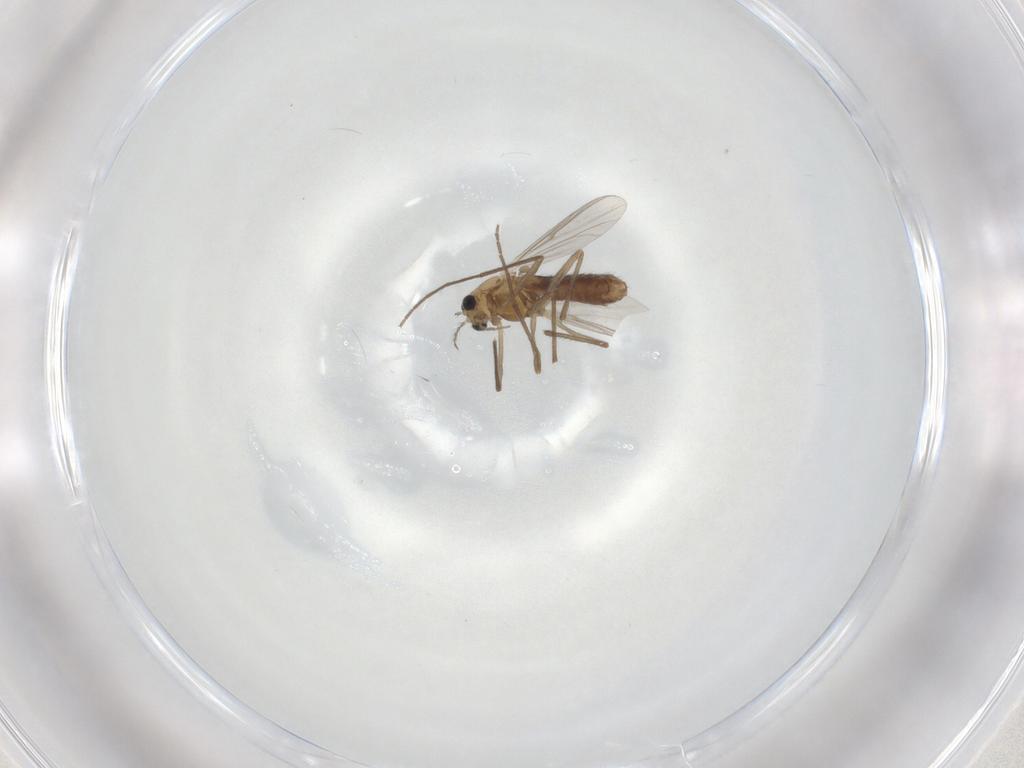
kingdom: Animalia
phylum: Arthropoda
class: Insecta
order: Diptera
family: Chironomidae
